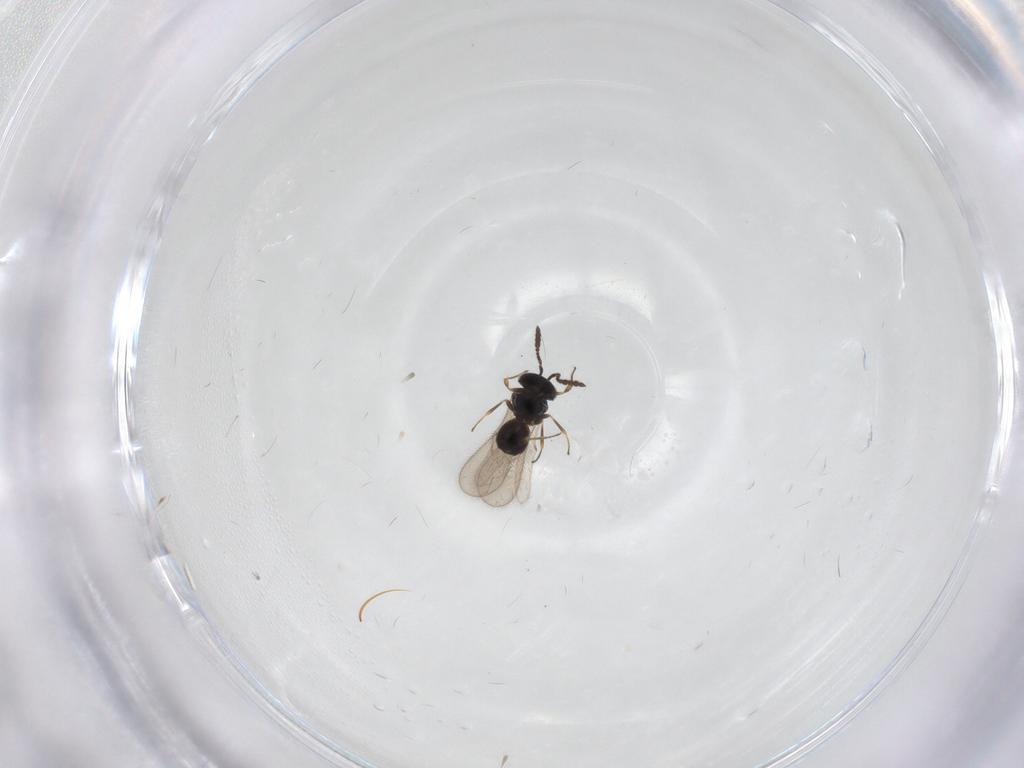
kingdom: Animalia
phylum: Arthropoda
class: Insecta
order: Hymenoptera
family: Scelionidae
